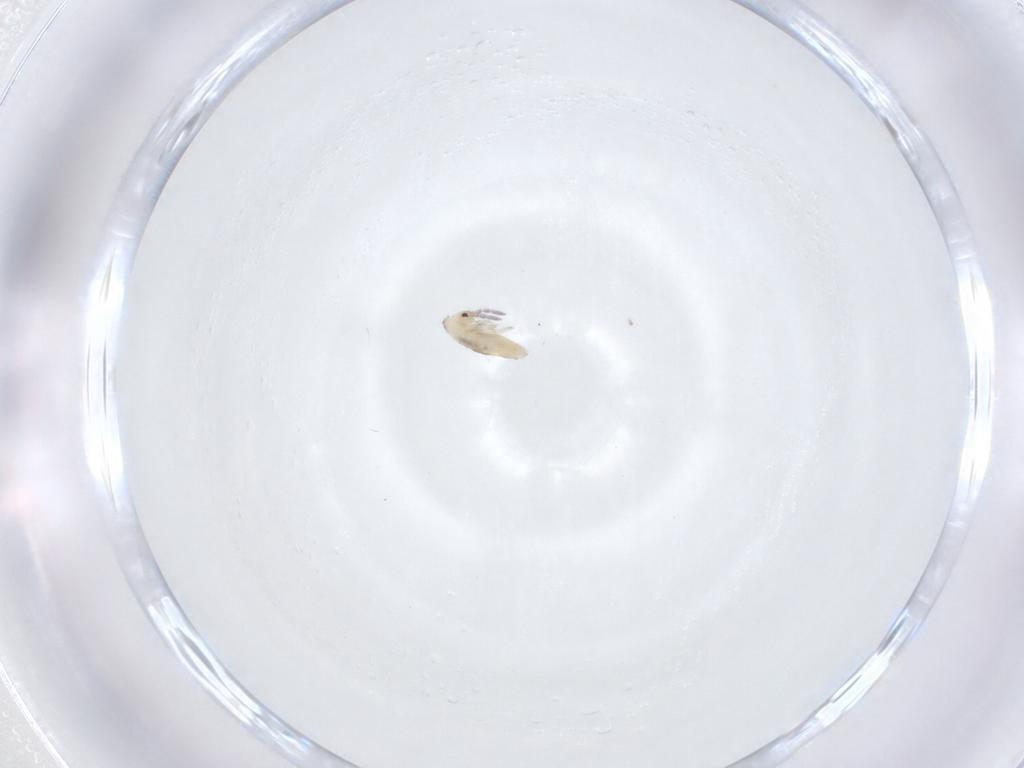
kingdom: Animalia
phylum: Arthropoda
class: Collembola
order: Entomobryomorpha
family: Entomobryidae
